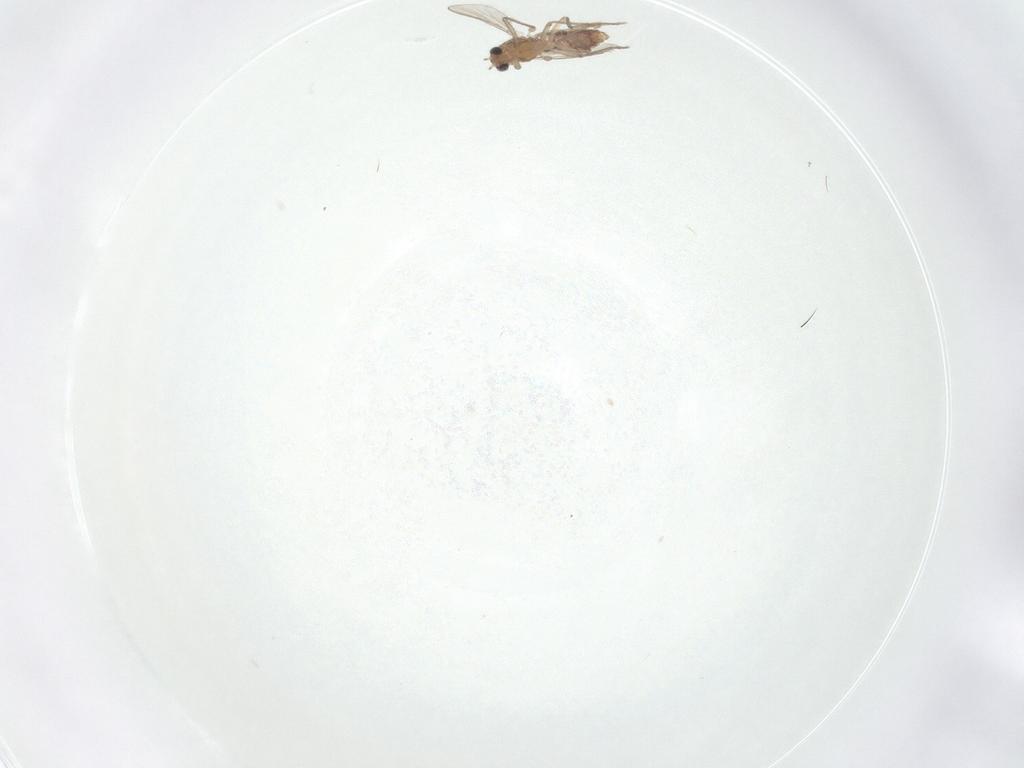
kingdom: Animalia
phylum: Arthropoda
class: Insecta
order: Diptera
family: Chironomidae
